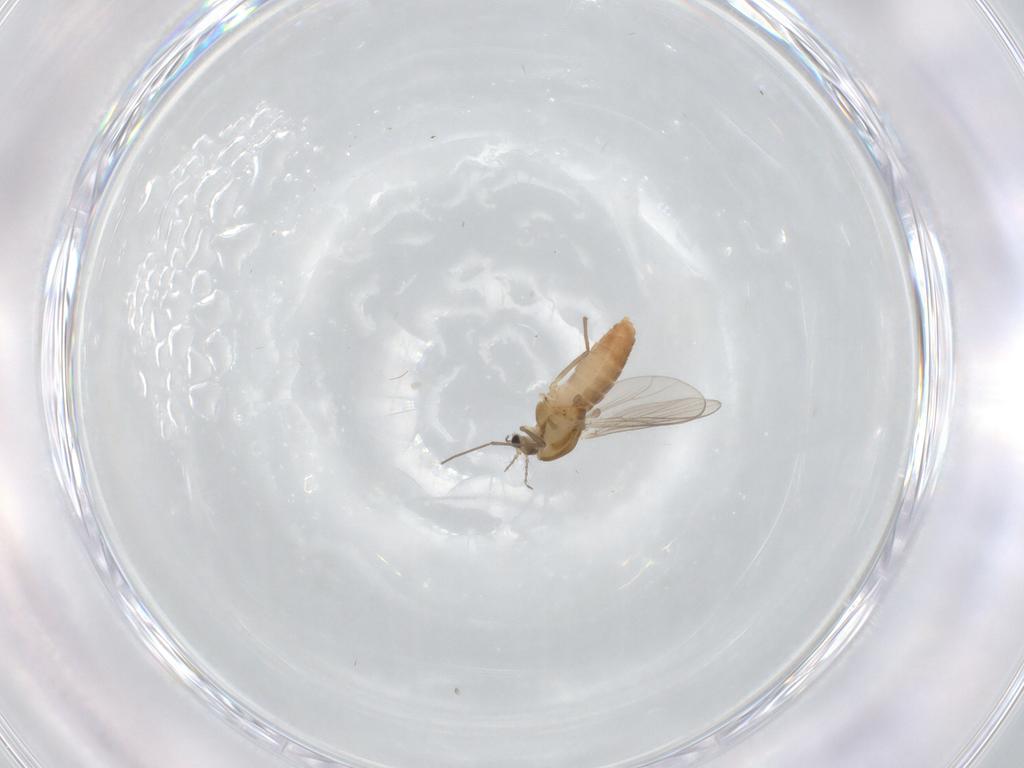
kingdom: Animalia
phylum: Arthropoda
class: Insecta
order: Diptera
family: Chironomidae
